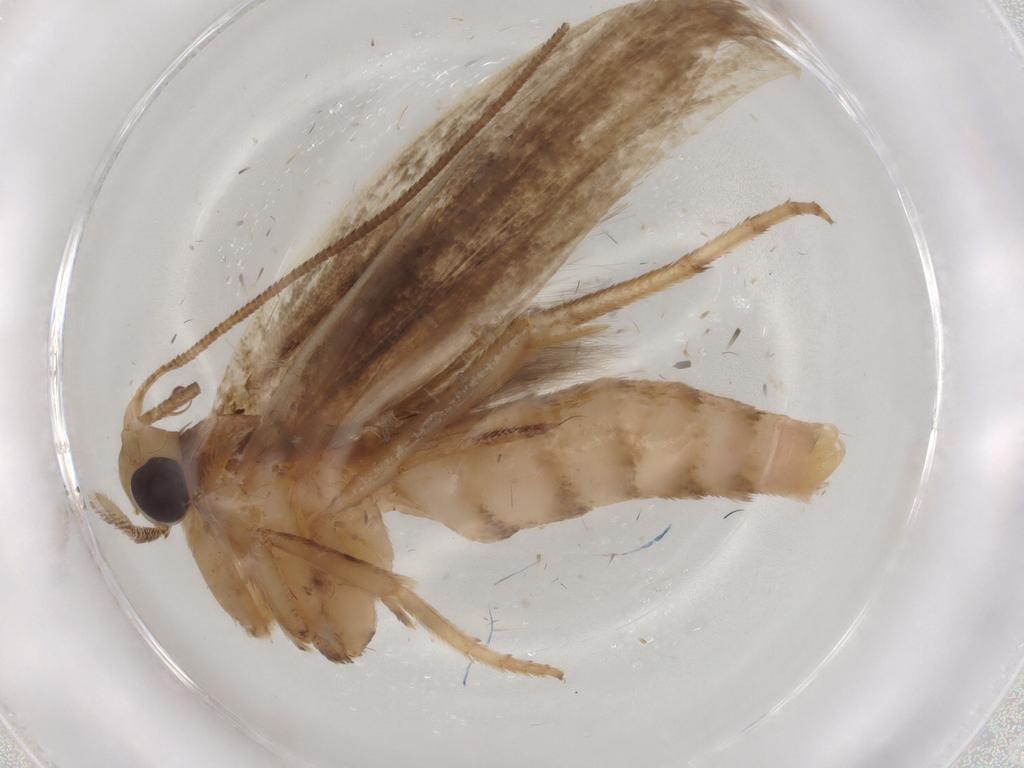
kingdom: Animalia
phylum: Arthropoda
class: Insecta
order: Lepidoptera
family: Yponomeutidae
